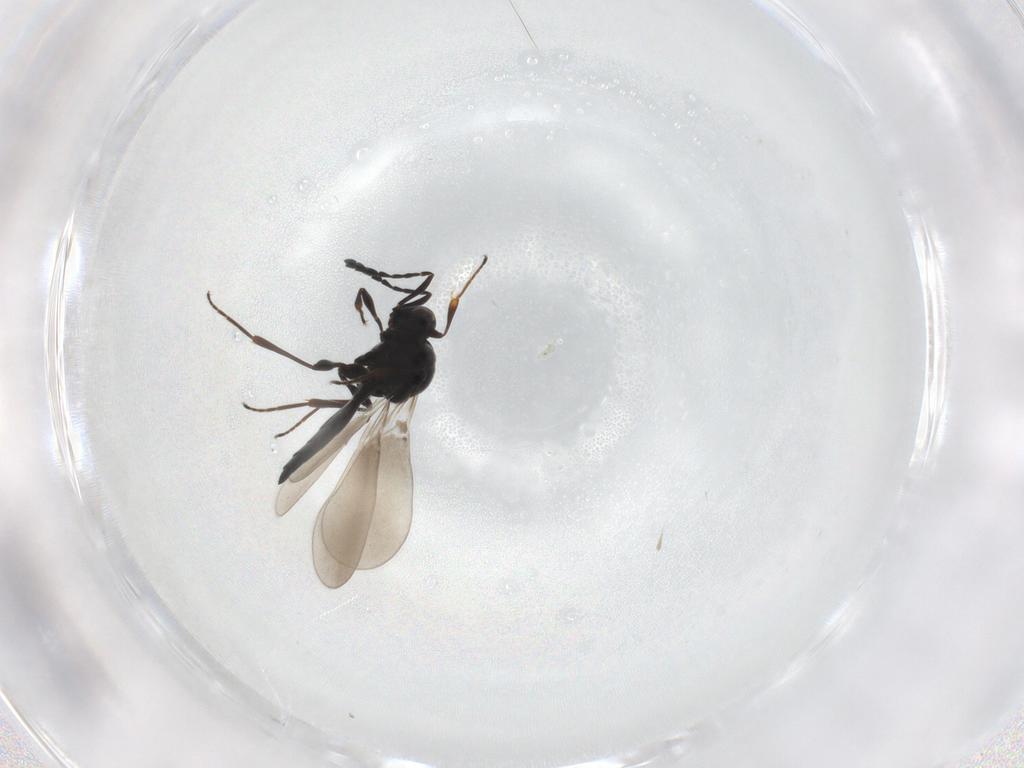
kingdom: Animalia
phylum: Arthropoda
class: Insecta
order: Hymenoptera
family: Platygastridae
